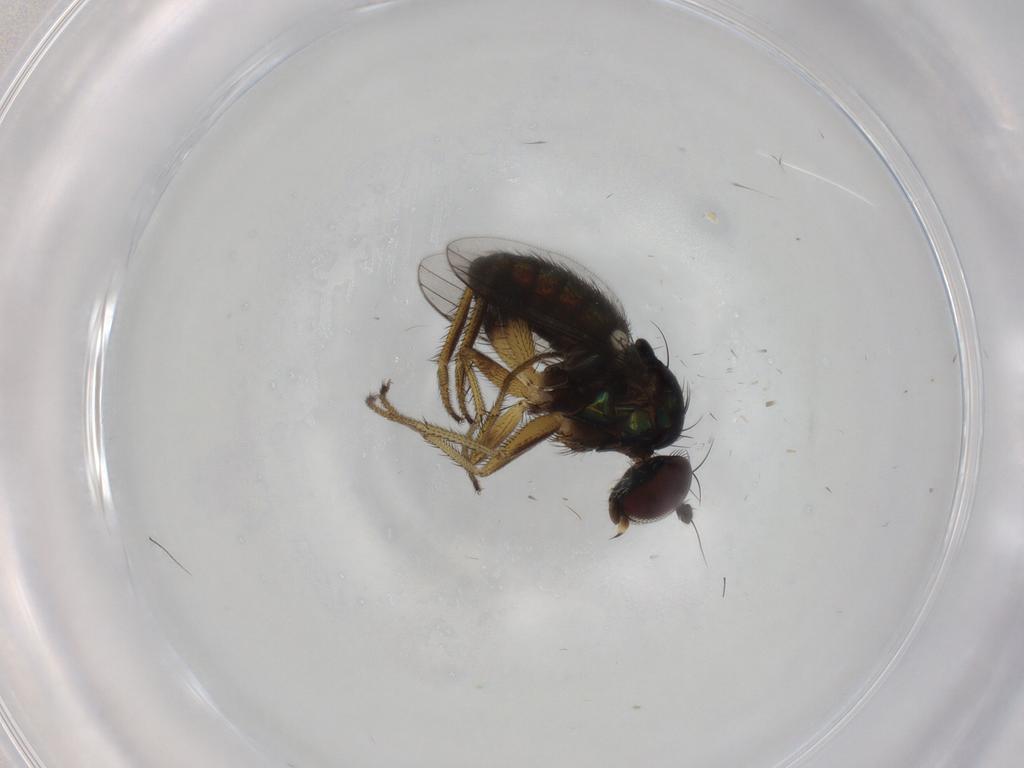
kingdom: Animalia
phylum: Arthropoda
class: Insecta
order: Diptera
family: Dolichopodidae
